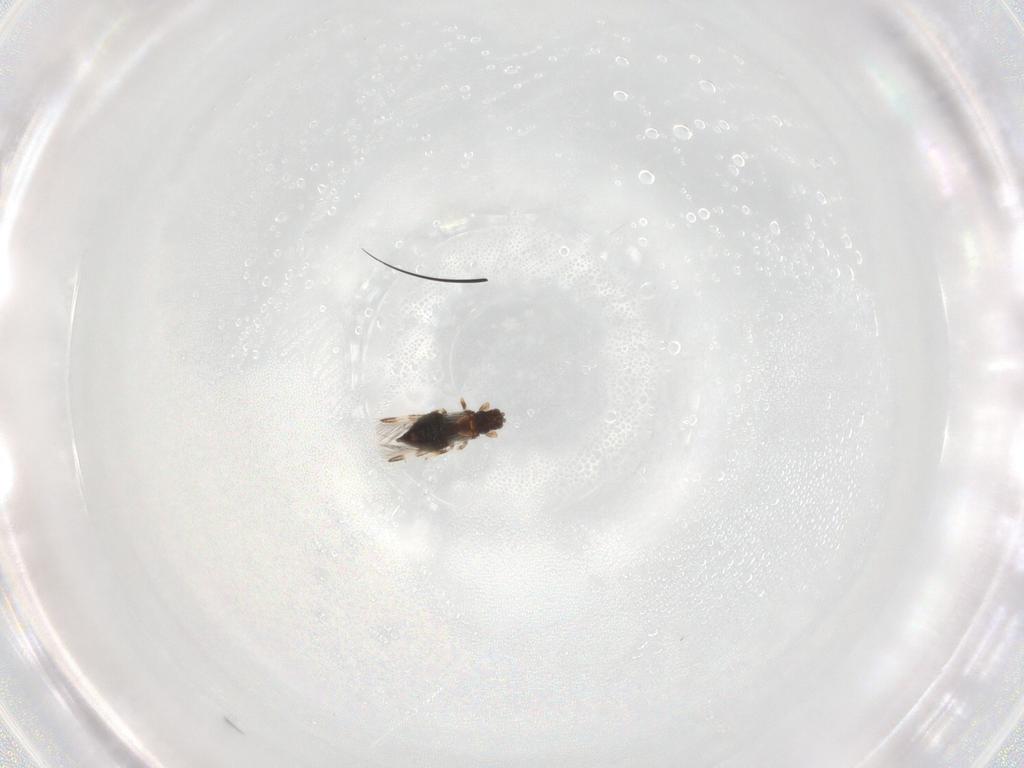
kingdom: Animalia
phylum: Arthropoda
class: Insecta
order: Thysanoptera
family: Thripidae
